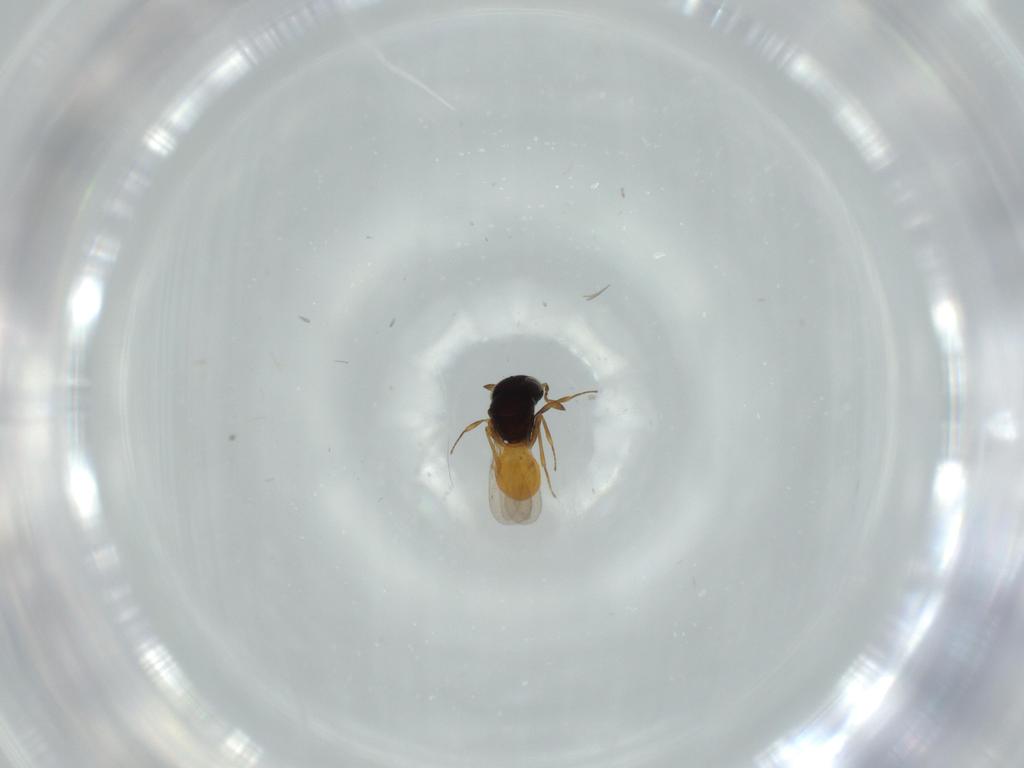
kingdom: Animalia
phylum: Arthropoda
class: Insecta
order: Hymenoptera
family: Scelionidae
